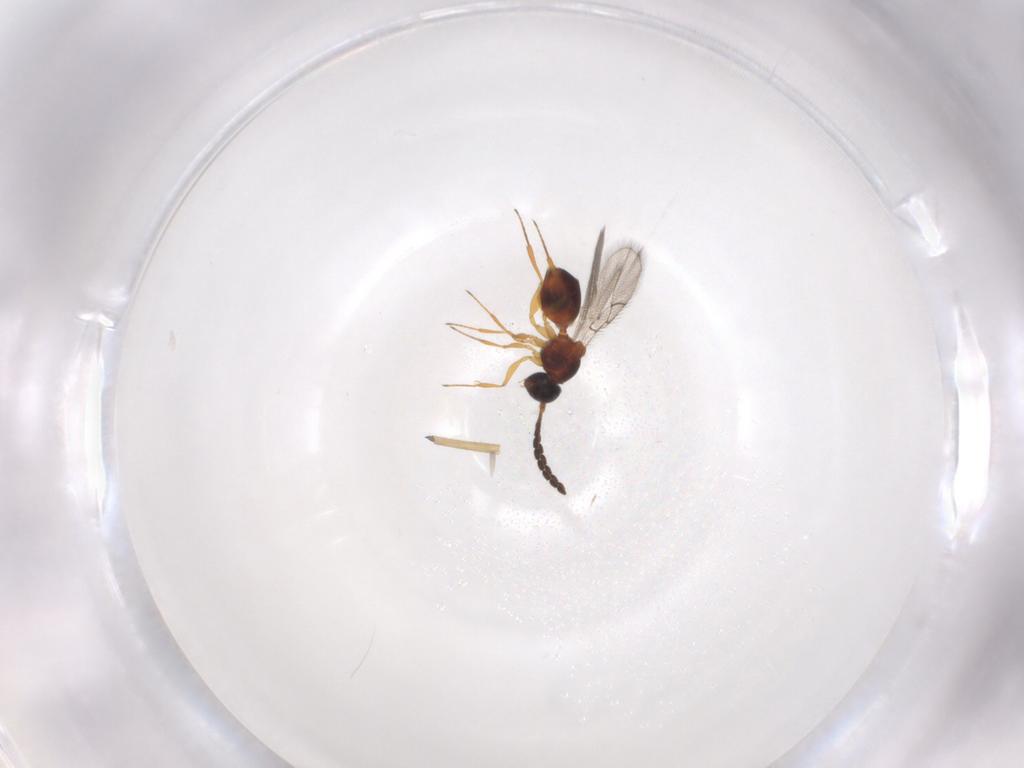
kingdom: Animalia
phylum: Arthropoda
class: Insecta
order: Hymenoptera
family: Figitidae
